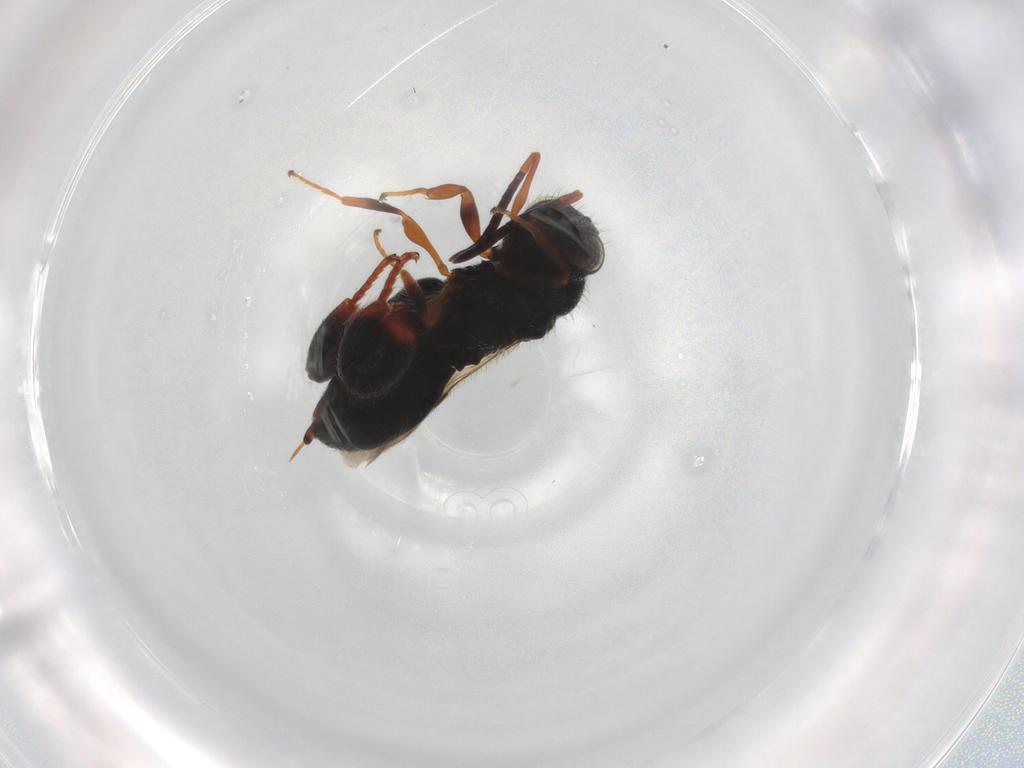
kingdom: Animalia
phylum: Arthropoda
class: Insecta
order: Hymenoptera
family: Chalcididae
